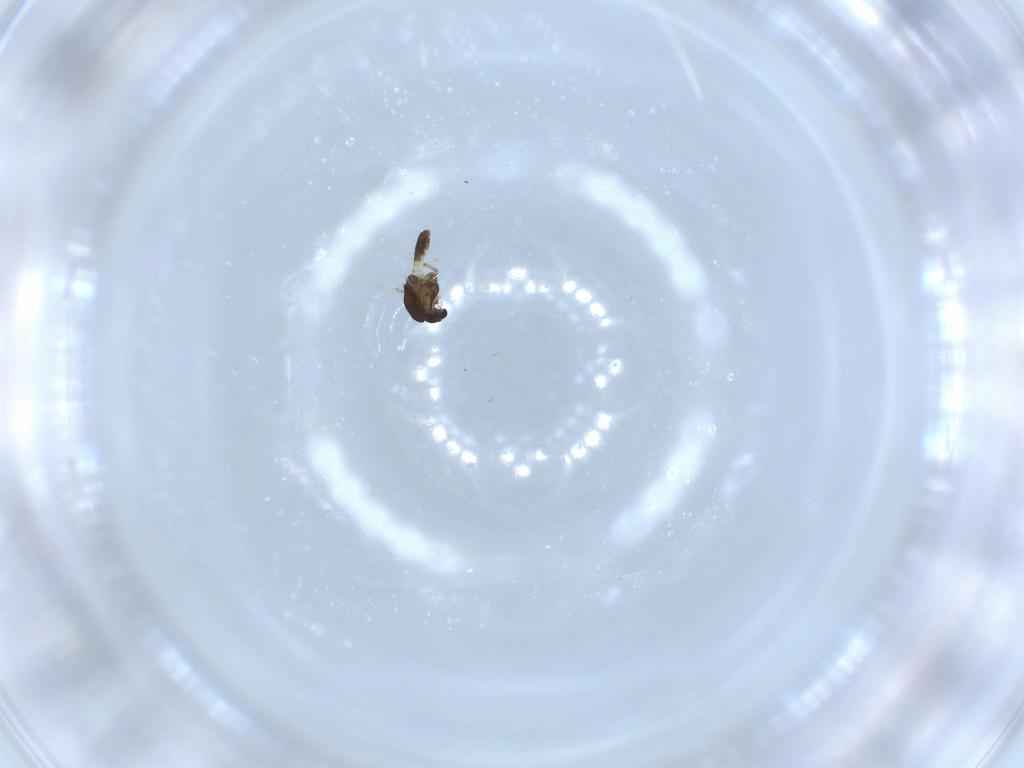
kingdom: Animalia
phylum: Arthropoda
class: Insecta
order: Diptera
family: Chironomidae
